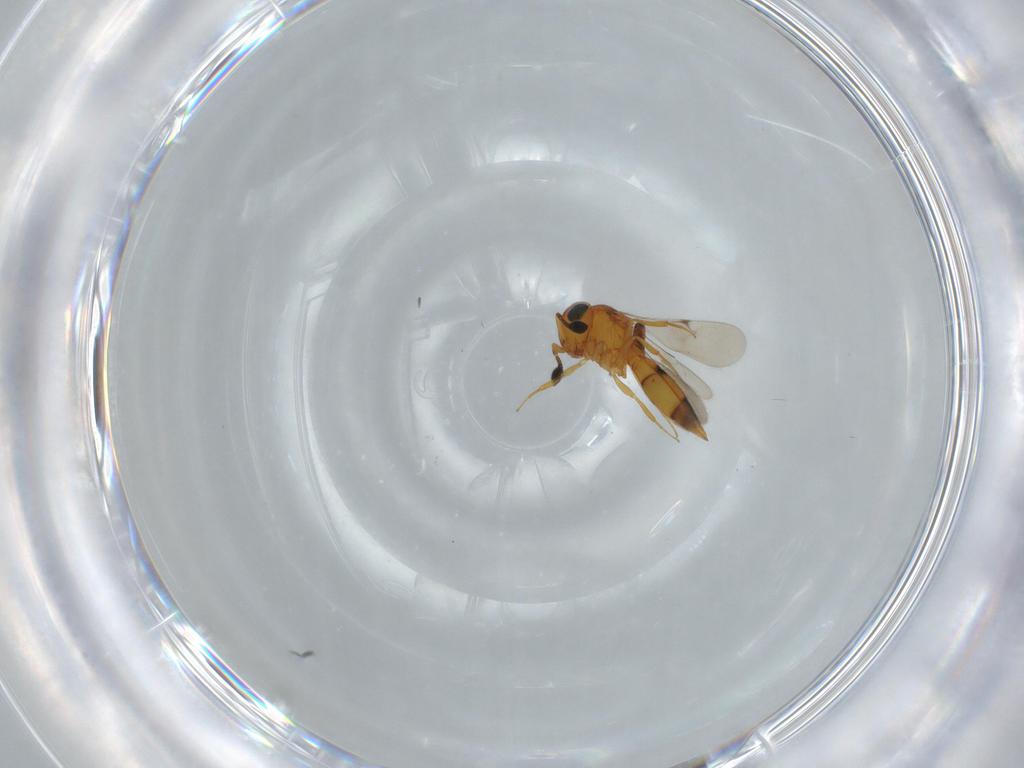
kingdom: Animalia
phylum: Arthropoda
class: Insecta
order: Hymenoptera
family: Scelionidae
